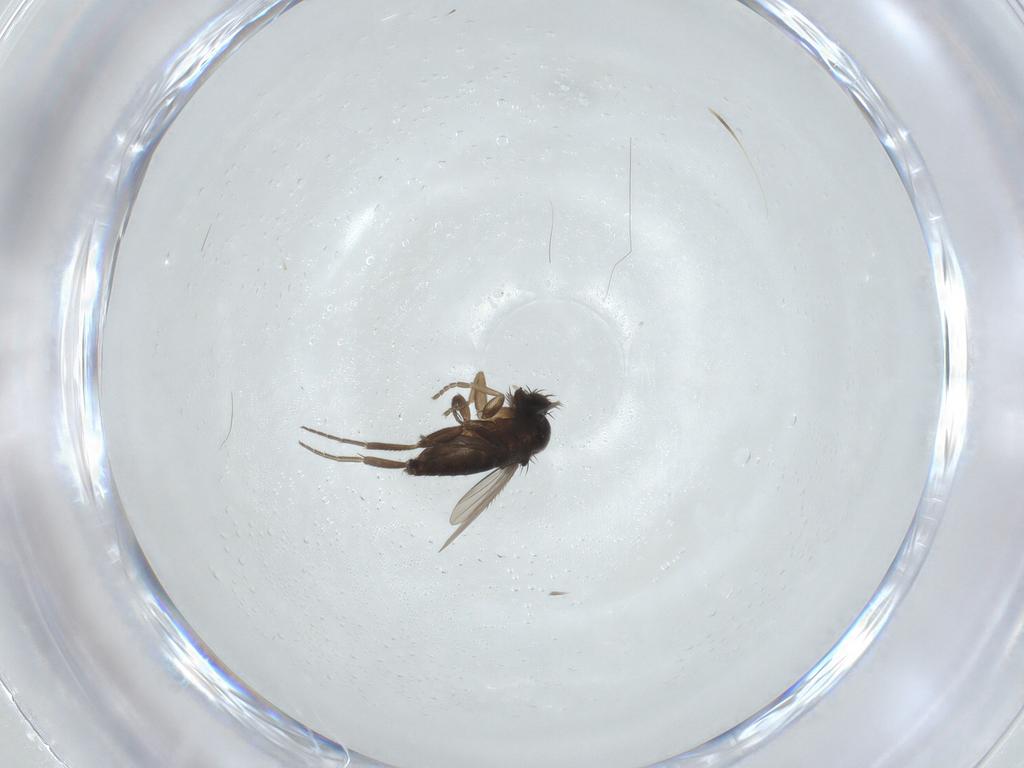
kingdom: Animalia
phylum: Arthropoda
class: Insecta
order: Diptera
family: Phoridae
